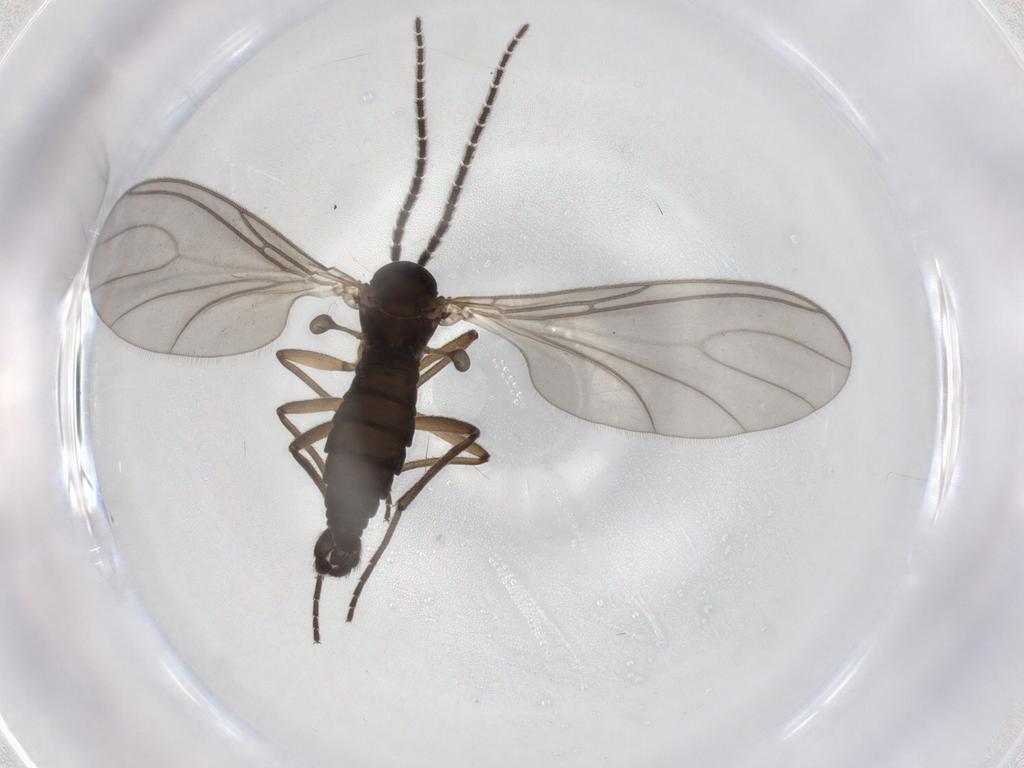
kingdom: Animalia
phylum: Arthropoda
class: Insecta
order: Diptera
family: Sciaridae
